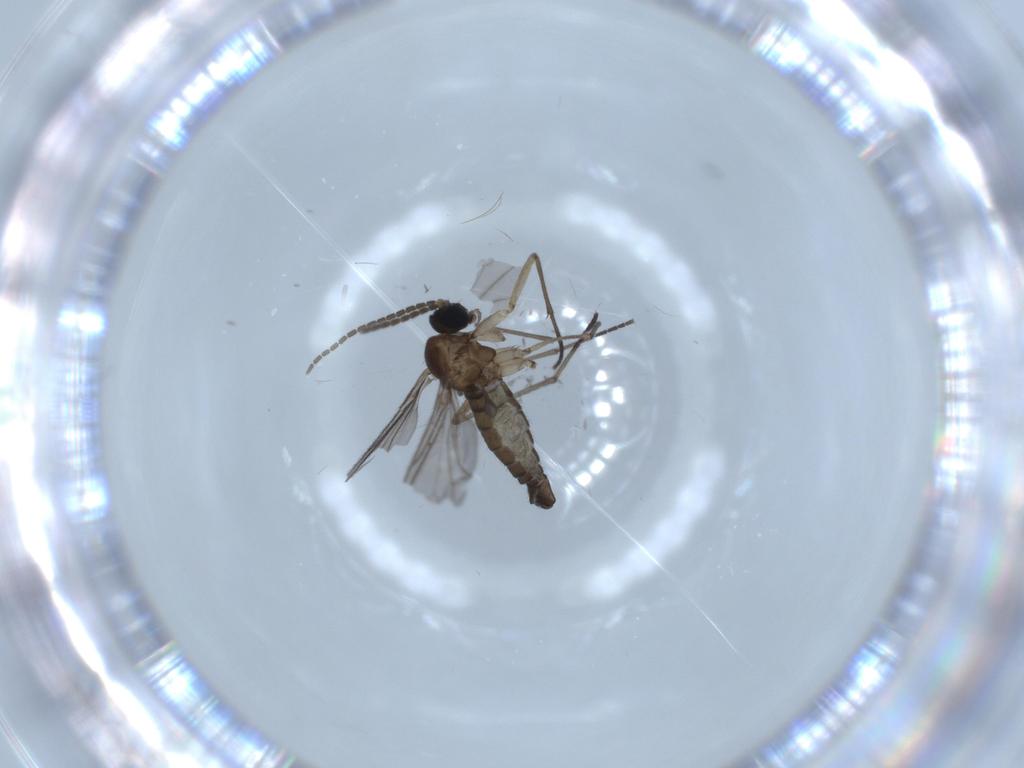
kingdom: Animalia
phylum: Arthropoda
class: Insecta
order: Diptera
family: Sciaridae
